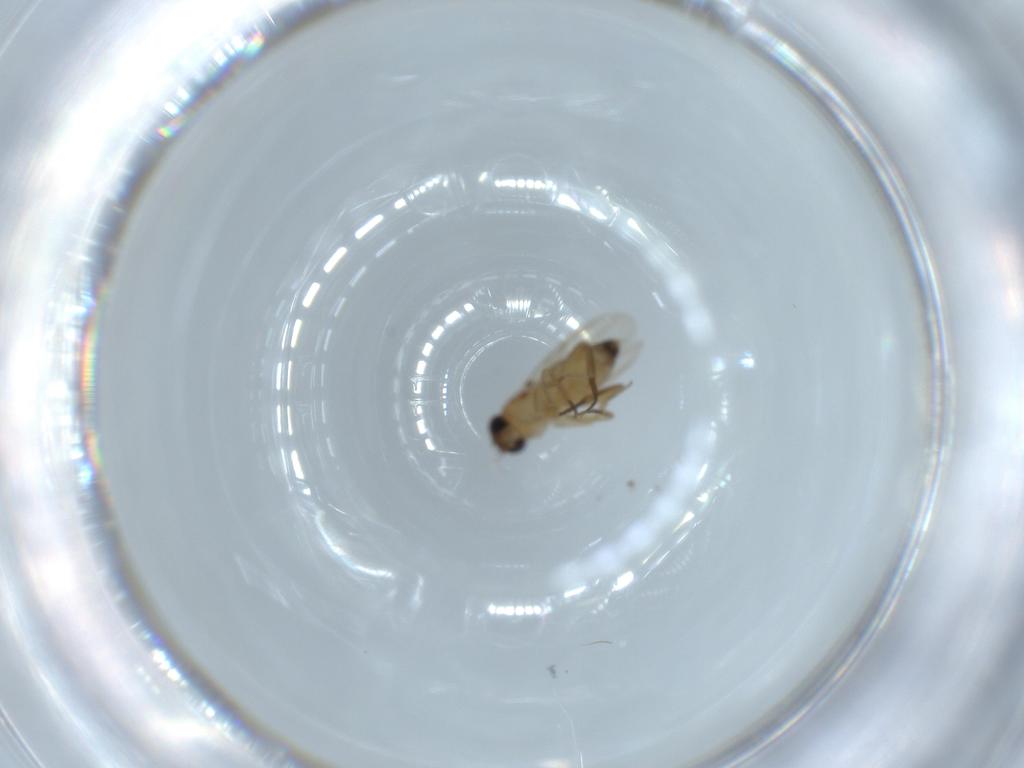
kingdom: Animalia
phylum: Arthropoda
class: Insecta
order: Diptera
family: Phoridae
